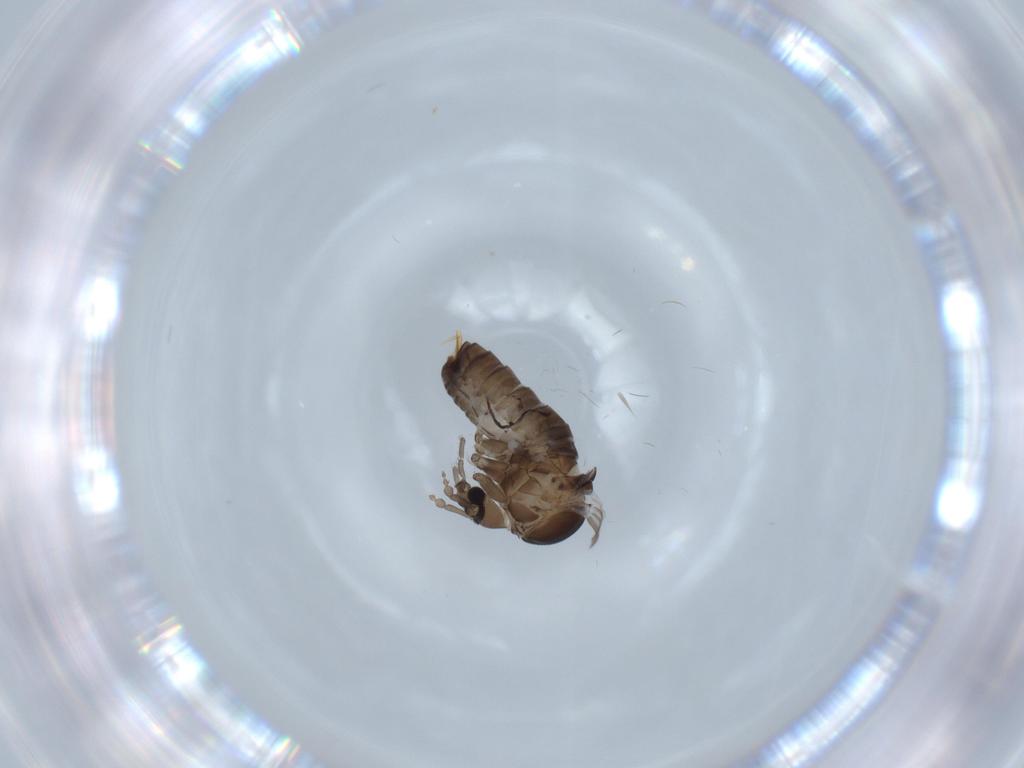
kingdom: Animalia
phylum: Arthropoda
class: Insecta
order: Diptera
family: Psychodidae
